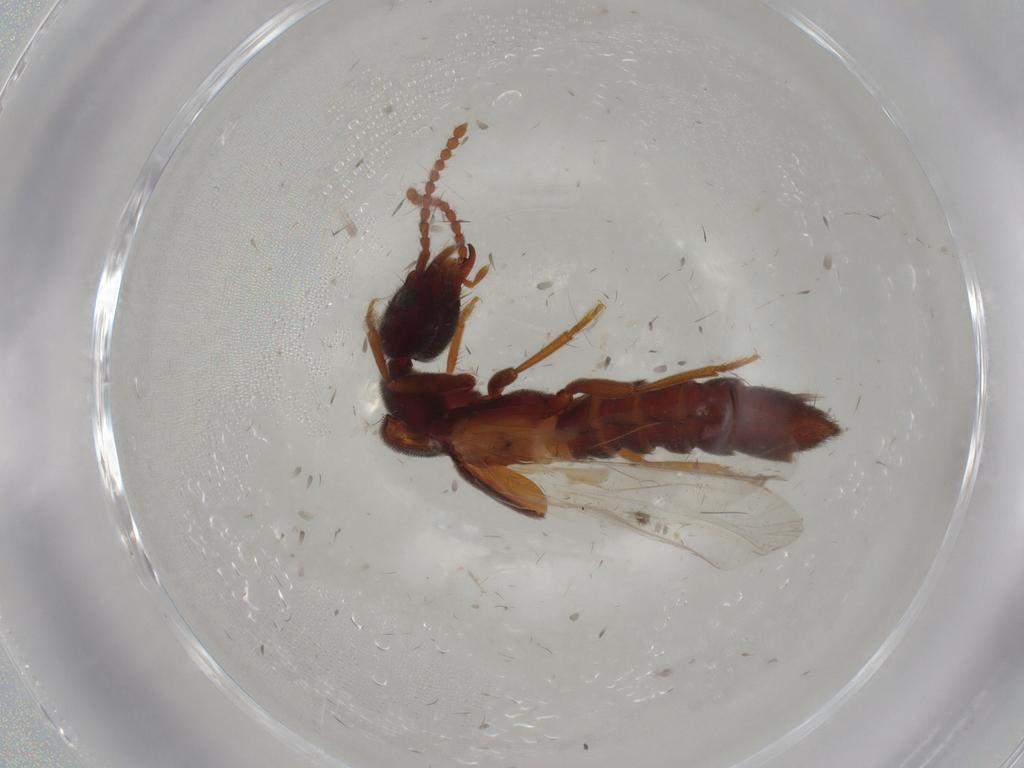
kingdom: Animalia
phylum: Arthropoda
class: Insecta
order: Coleoptera
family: Staphylinidae
